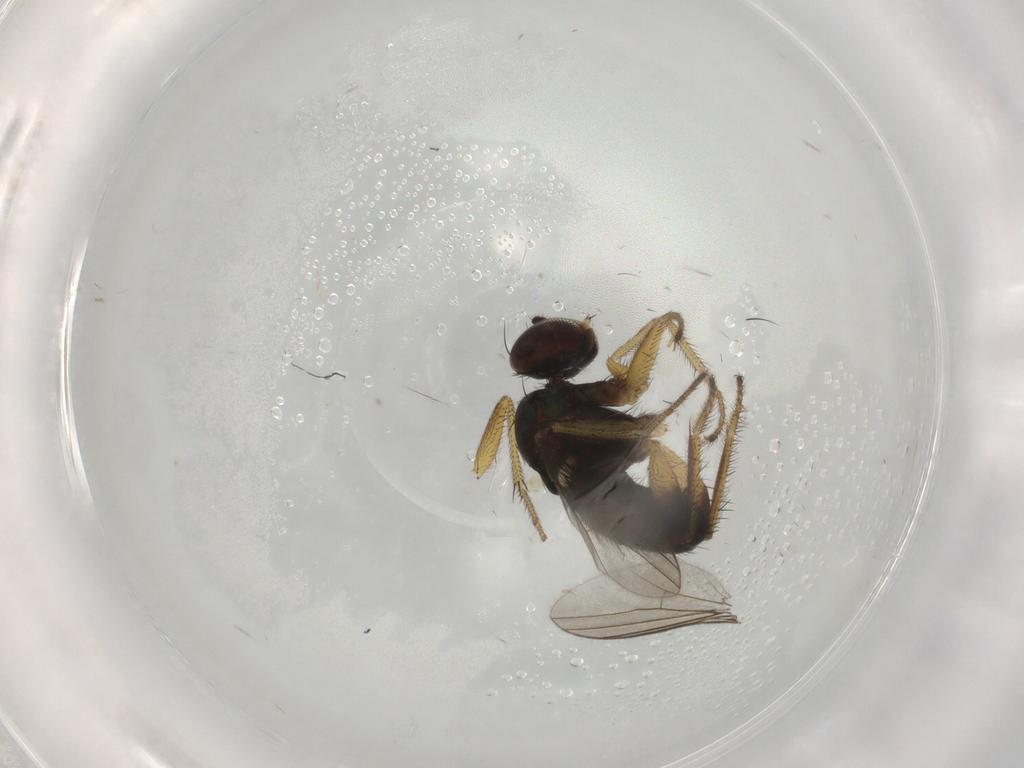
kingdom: Animalia
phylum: Arthropoda
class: Insecta
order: Diptera
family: Dolichopodidae
